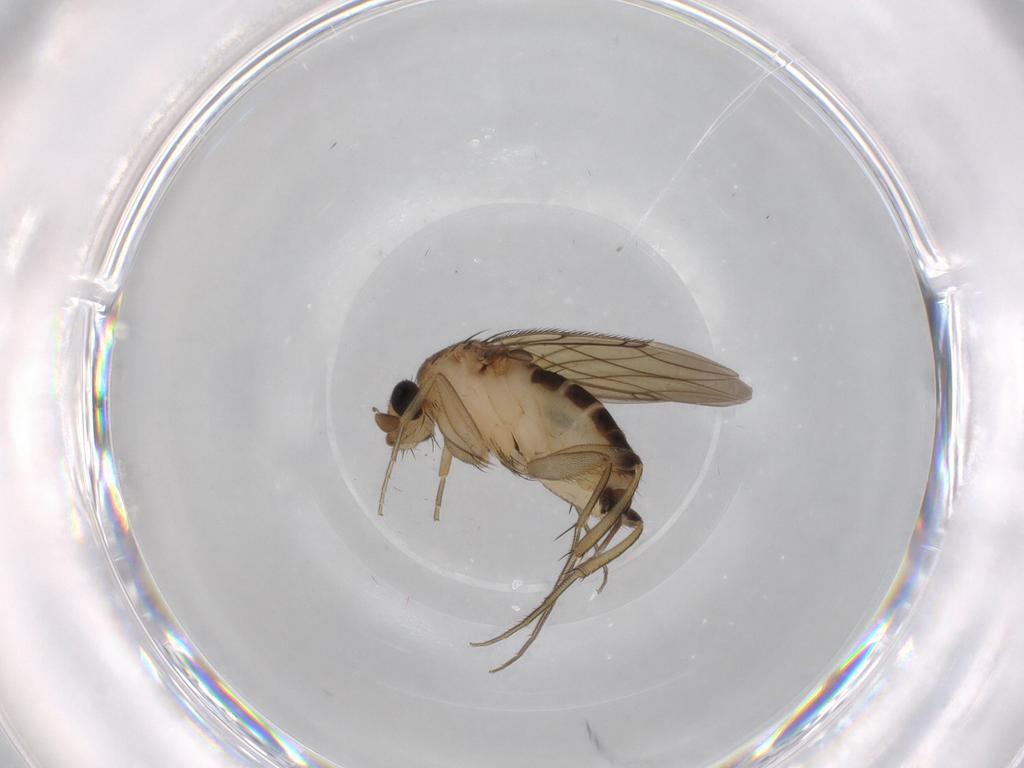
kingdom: Animalia
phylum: Arthropoda
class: Insecta
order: Diptera
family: Phoridae
